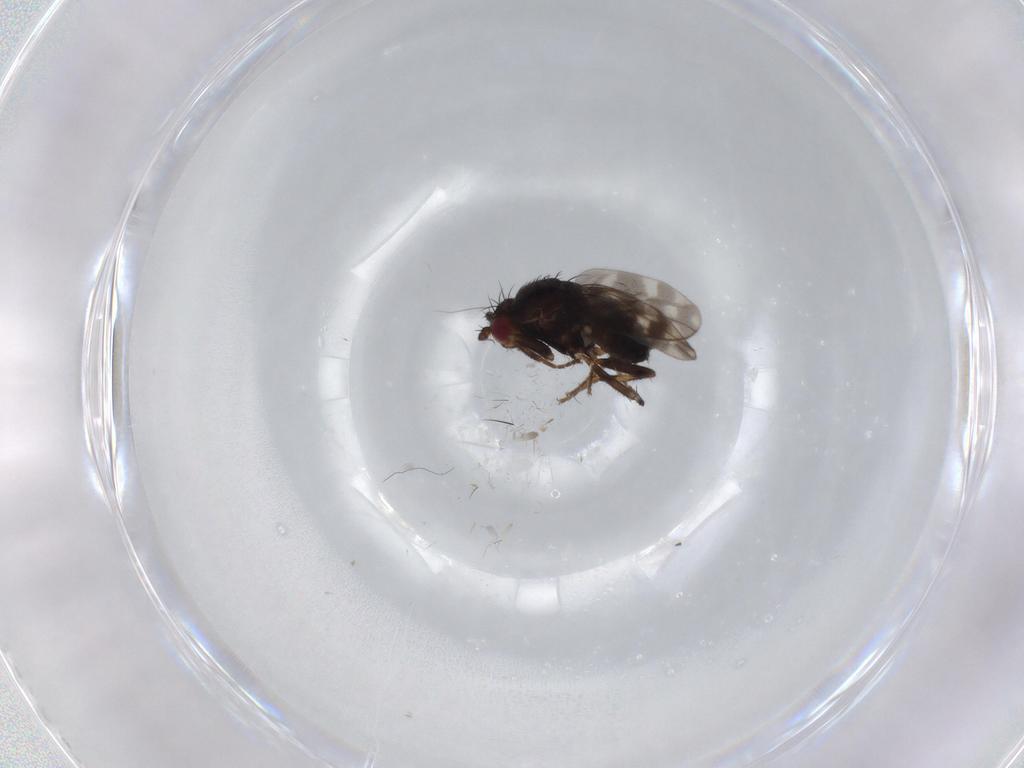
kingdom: Animalia
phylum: Arthropoda
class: Insecta
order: Diptera
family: Sphaeroceridae
